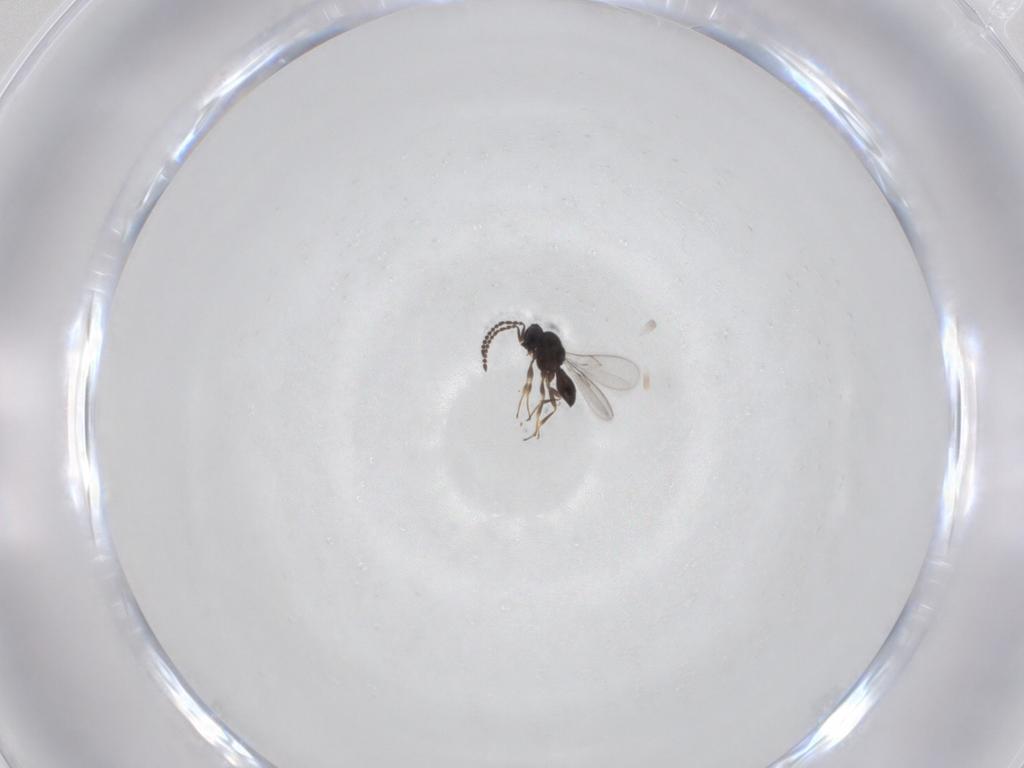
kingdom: Animalia
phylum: Arthropoda
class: Insecta
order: Hymenoptera
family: Scelionidae
